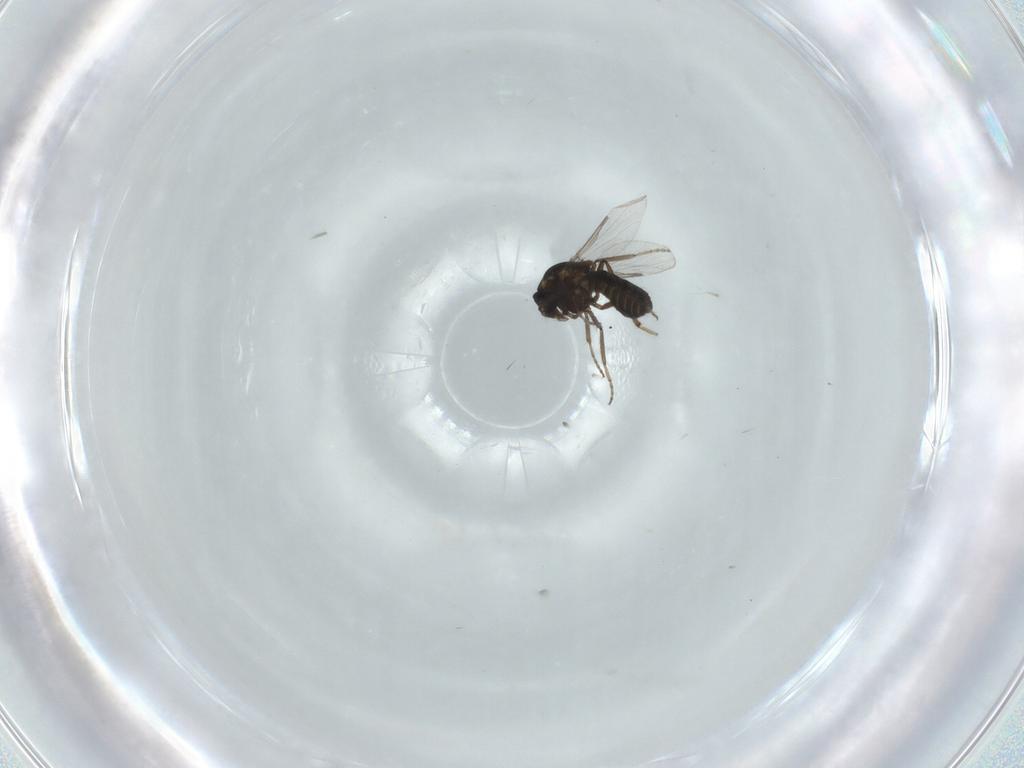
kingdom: Animalia
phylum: Arthropoda
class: Insecta
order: Diptera
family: Ceratopogonidae
